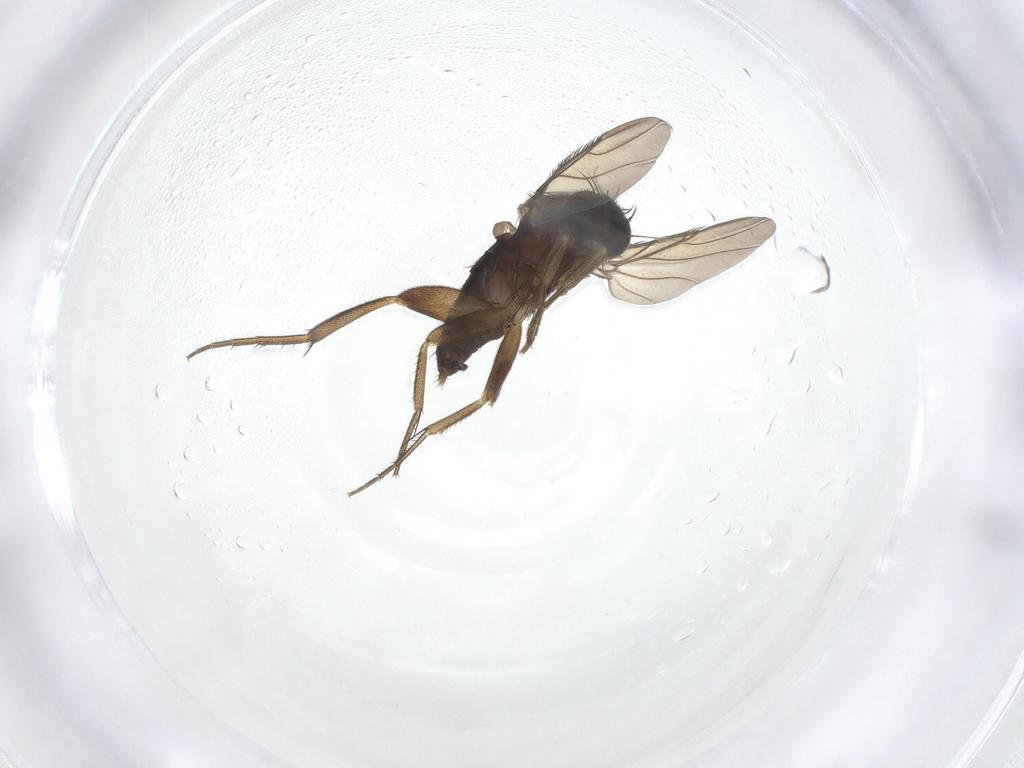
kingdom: Animalia
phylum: Arthropoda
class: Insecta
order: Diptera
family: Phoridae
